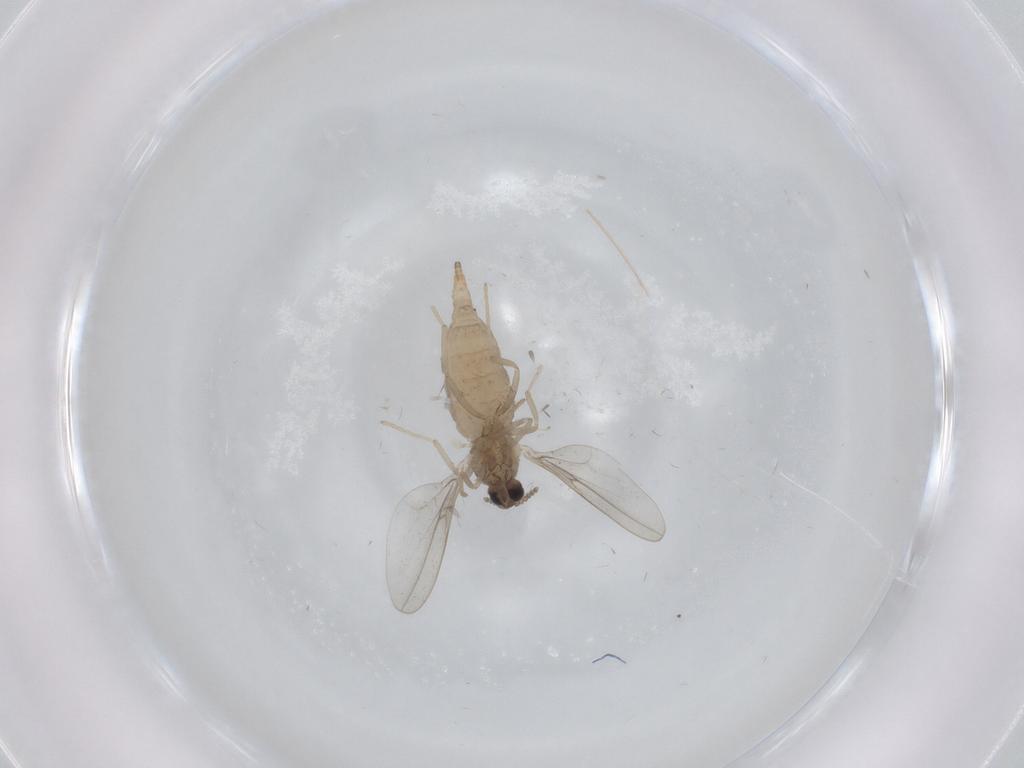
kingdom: Animalia
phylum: Arthropoda
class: Insecta
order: Diptera
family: Cecidomyiidae
